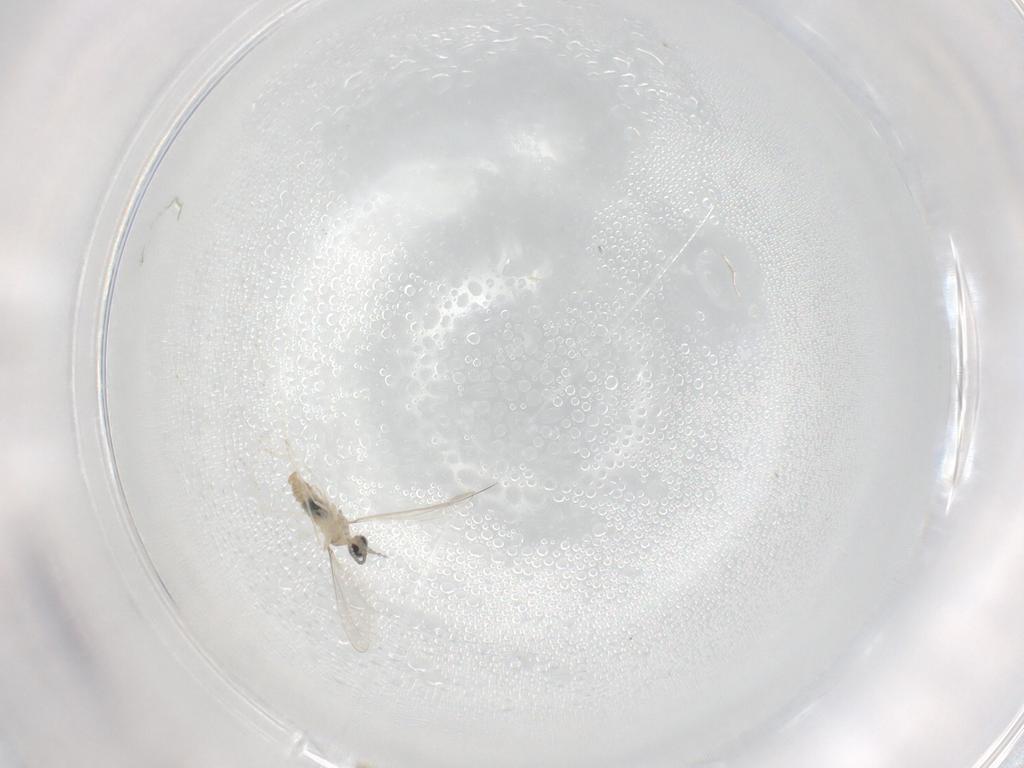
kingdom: Animalia
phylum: Arthropoda
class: Insecta
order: Diptera
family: Cecidomyiidae
